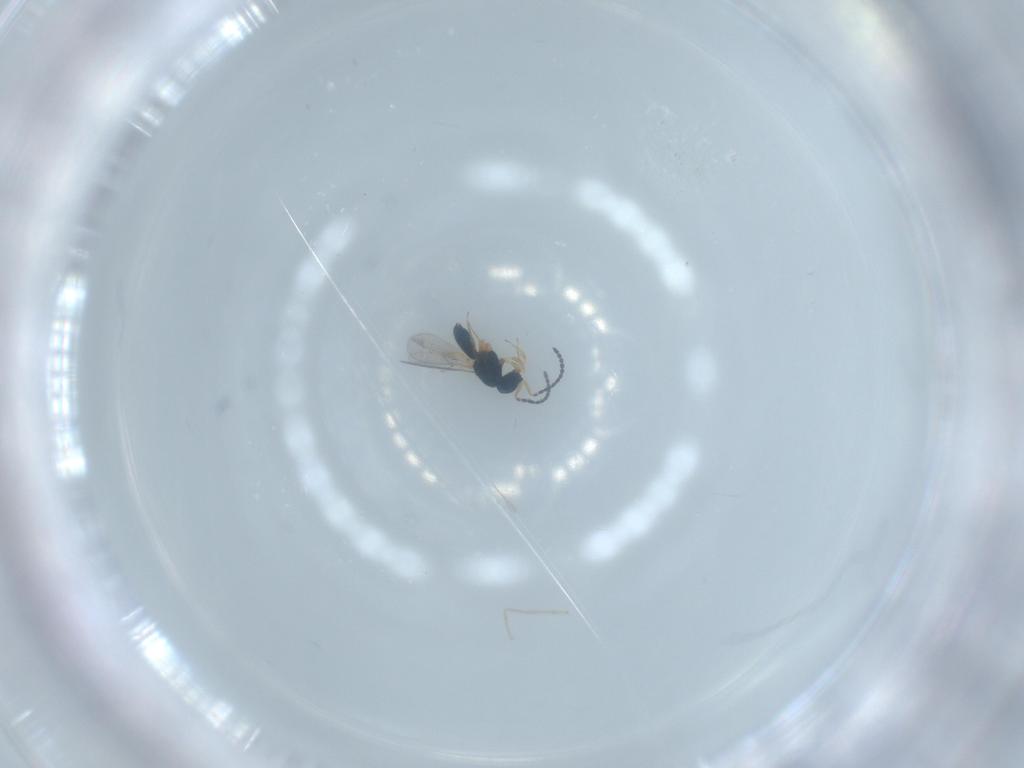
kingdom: Animalia
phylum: Arthropoda
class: Insecta
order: Hymenoptera
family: Scelionidae
